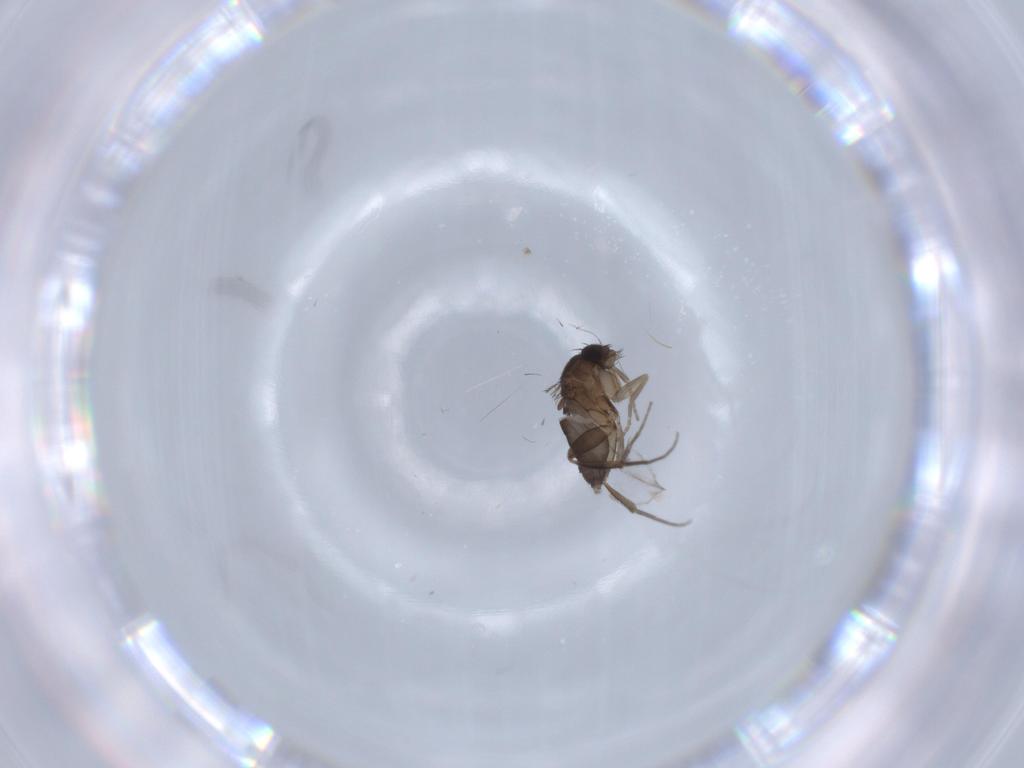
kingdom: Animalia
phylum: Arthropoda
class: Insecta
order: Diptera
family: Phoridae
